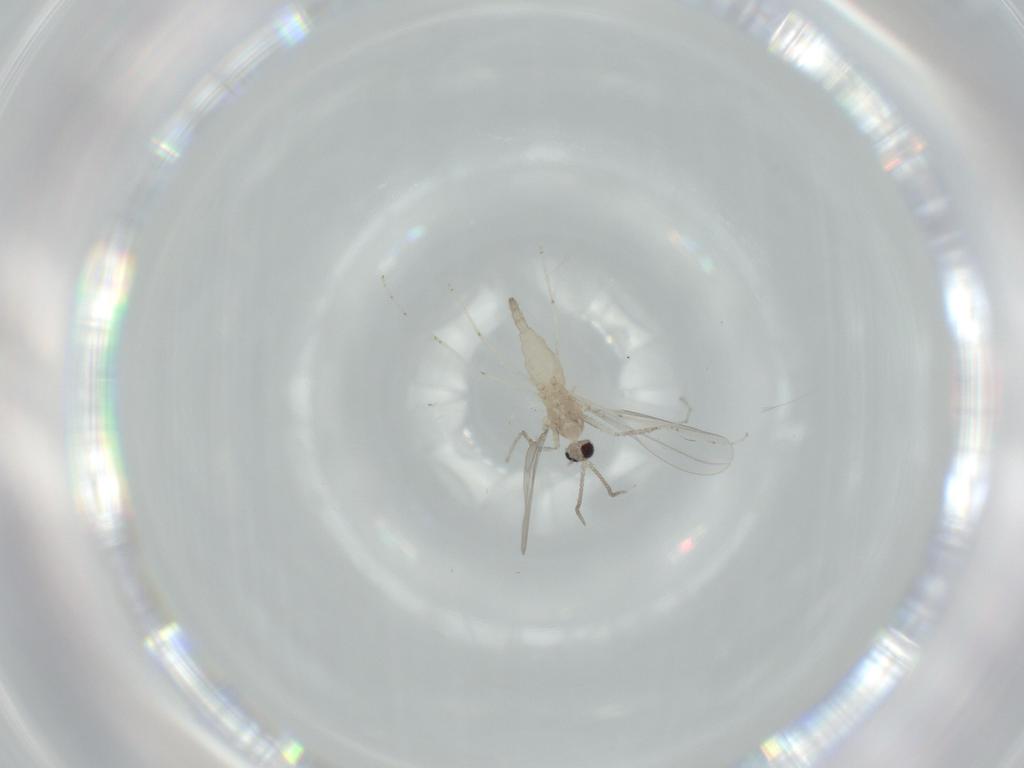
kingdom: Animalia
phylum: Arthropoda
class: Insecta
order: Diptera
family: Cecidomyiidae
